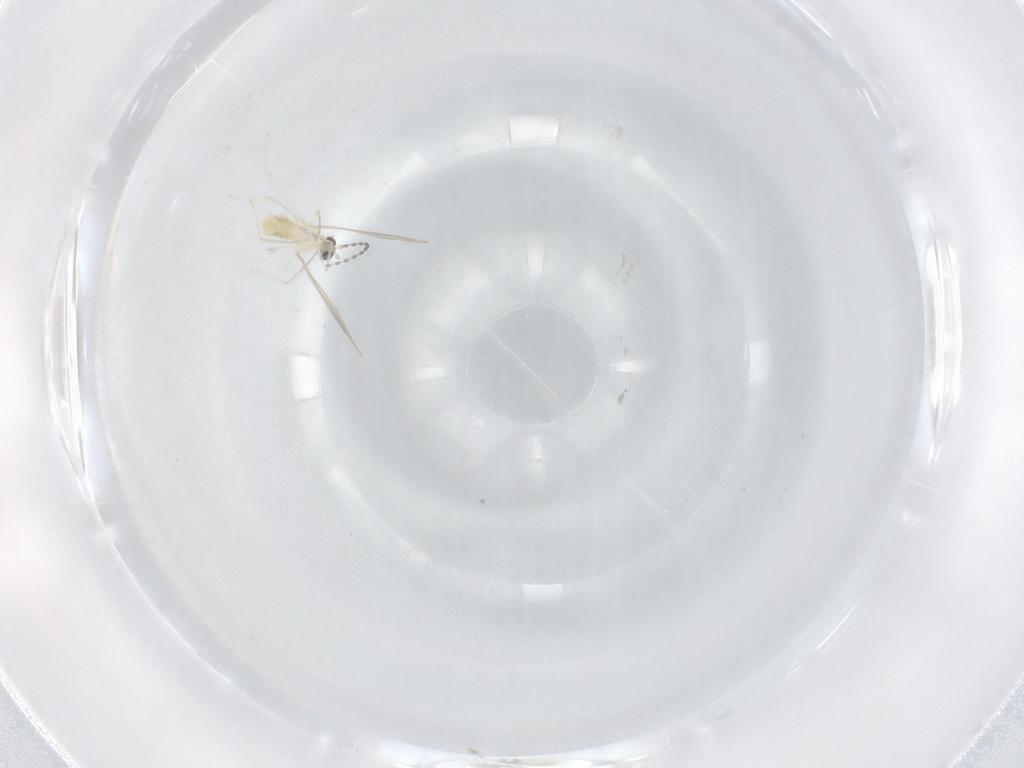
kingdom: Animalia
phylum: Arthropoda
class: Insecta
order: Diptera
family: Cecidomyiidae
